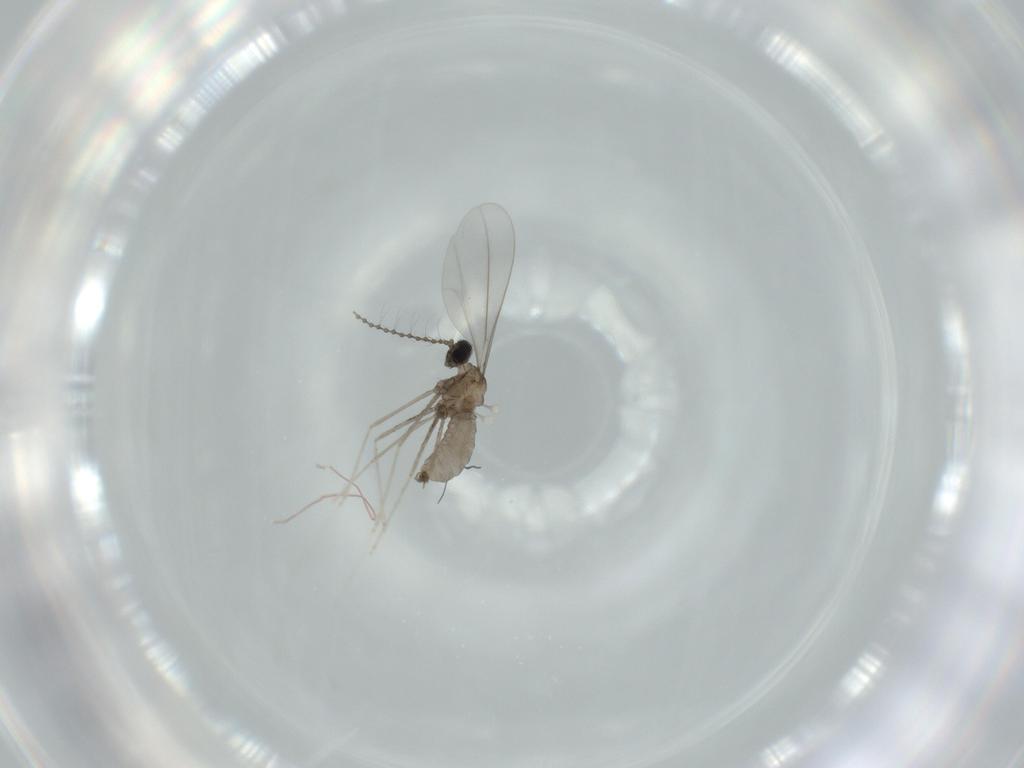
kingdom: Animalia
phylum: Arthropoda
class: Insecta
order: Diptera
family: Cecidomyiidae
